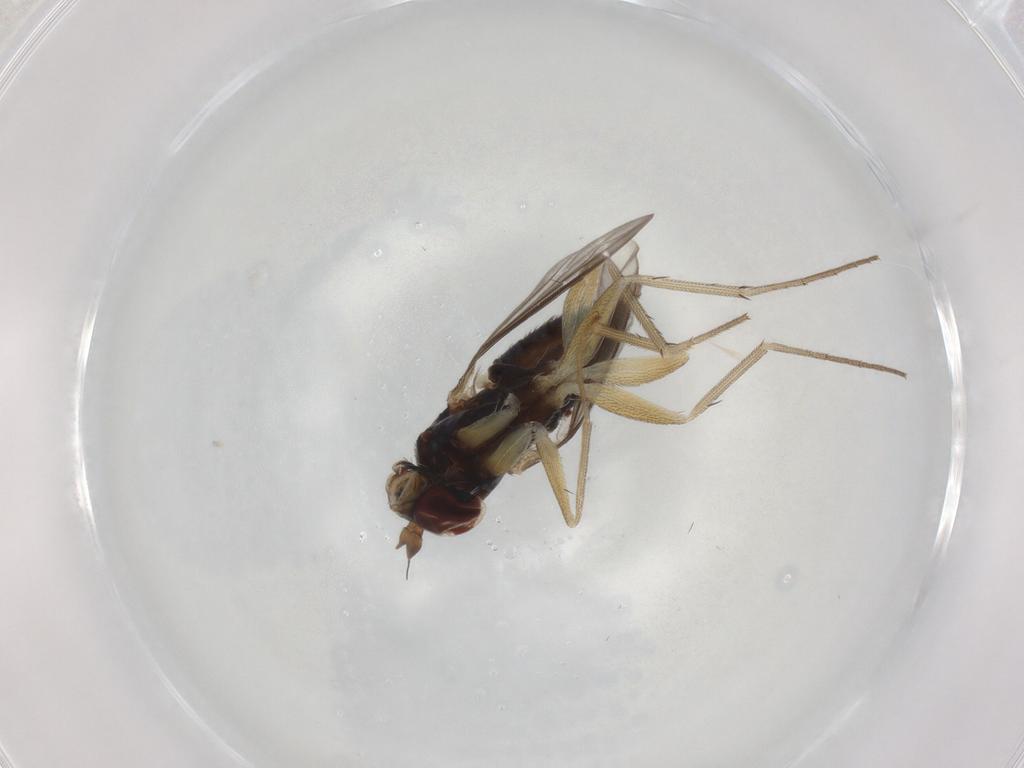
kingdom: Animalia
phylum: Arthropoda
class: Insecta
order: Diptera
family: Dolichopodidae
